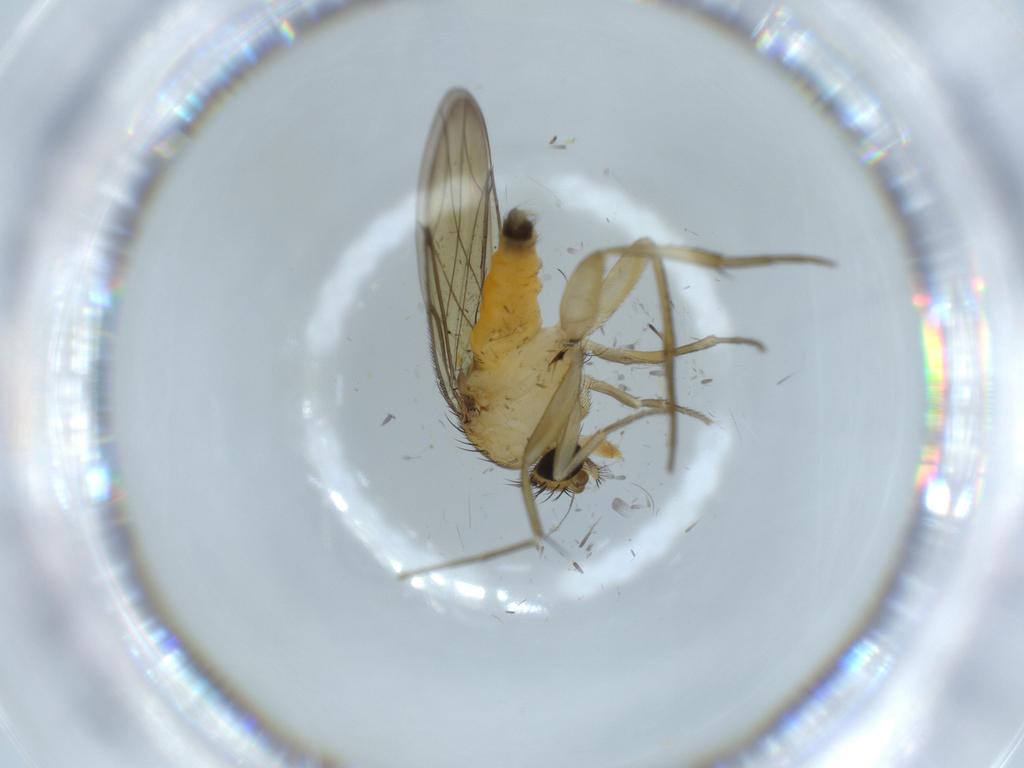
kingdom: Animalia
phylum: Arthropoda
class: Insecta
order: Diptera
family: Phoridae
